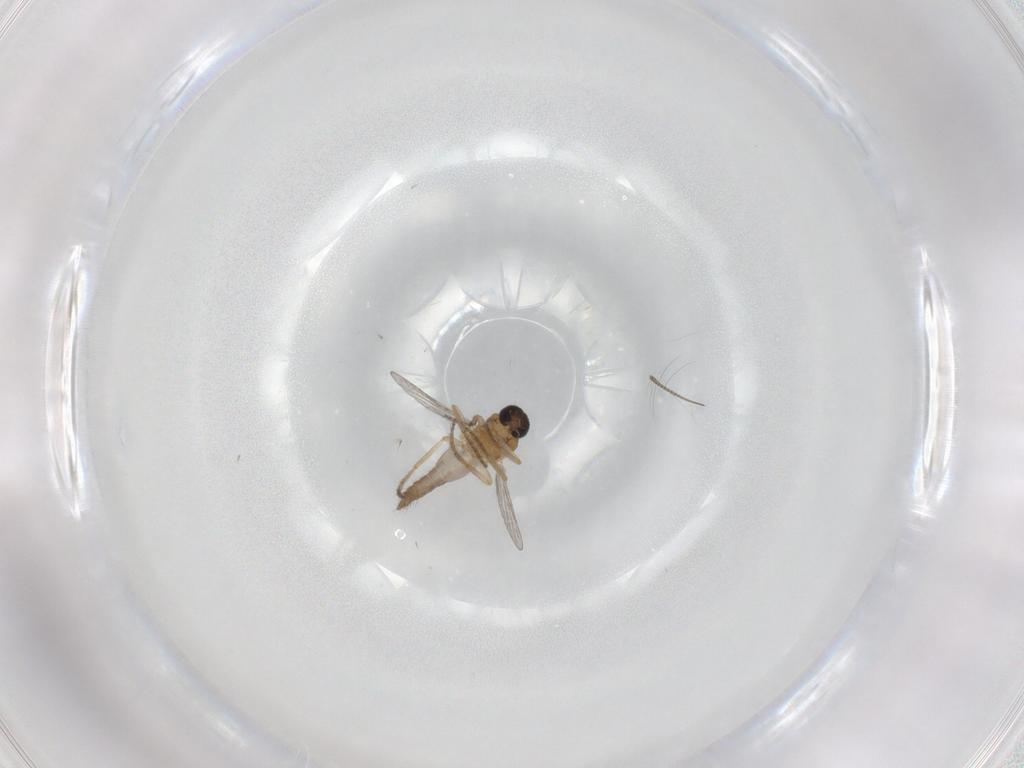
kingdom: Animalia
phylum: Arthropoda
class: Insecta
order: Diptera
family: Ceratopogonidae
